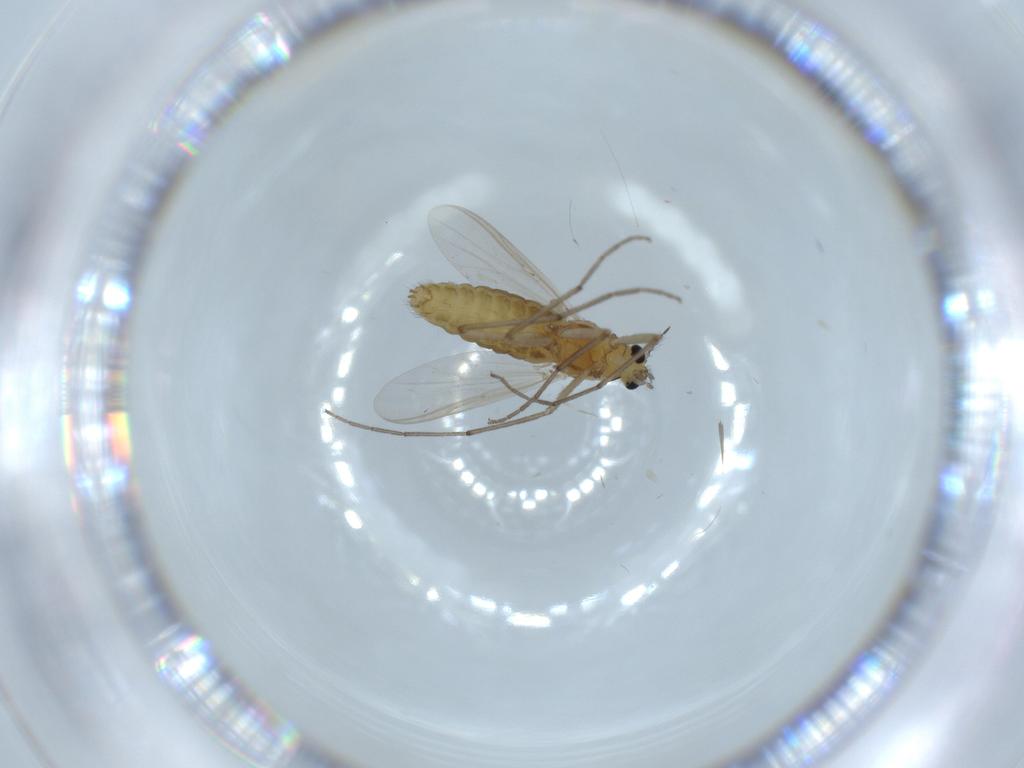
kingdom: Animalia
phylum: Arthropoda
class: Insecta
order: Diptera
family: Chironomidae
